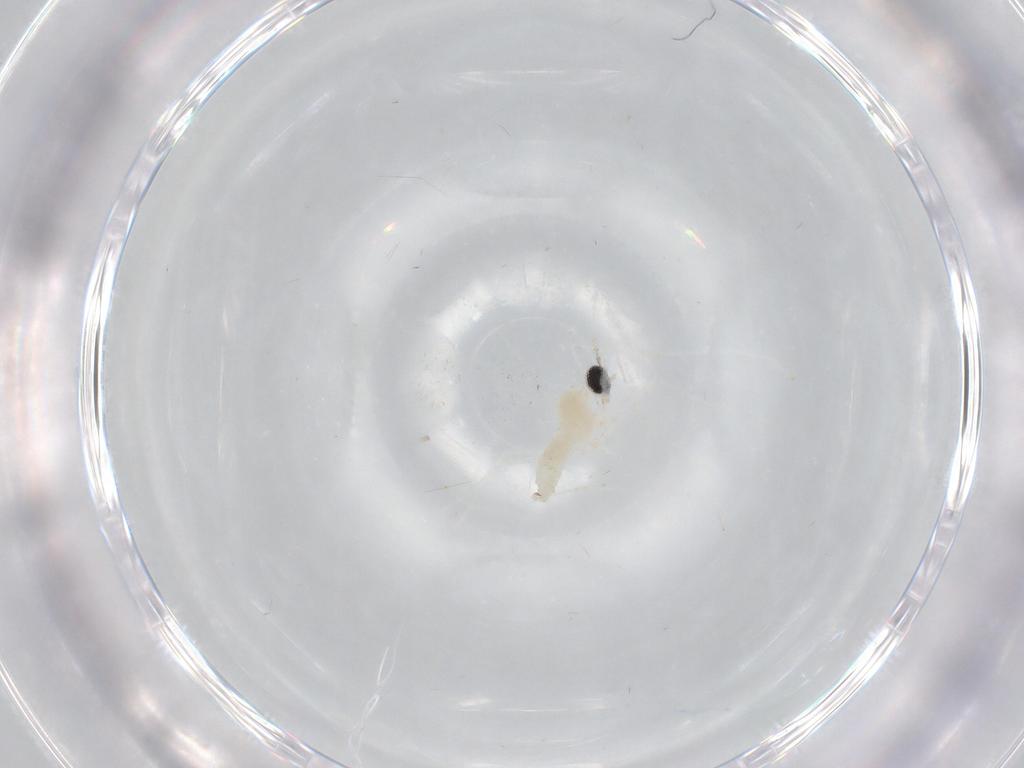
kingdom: Animalia
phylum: Arthropoda
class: Insecta
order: Diptera
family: Cecidomyiidae
